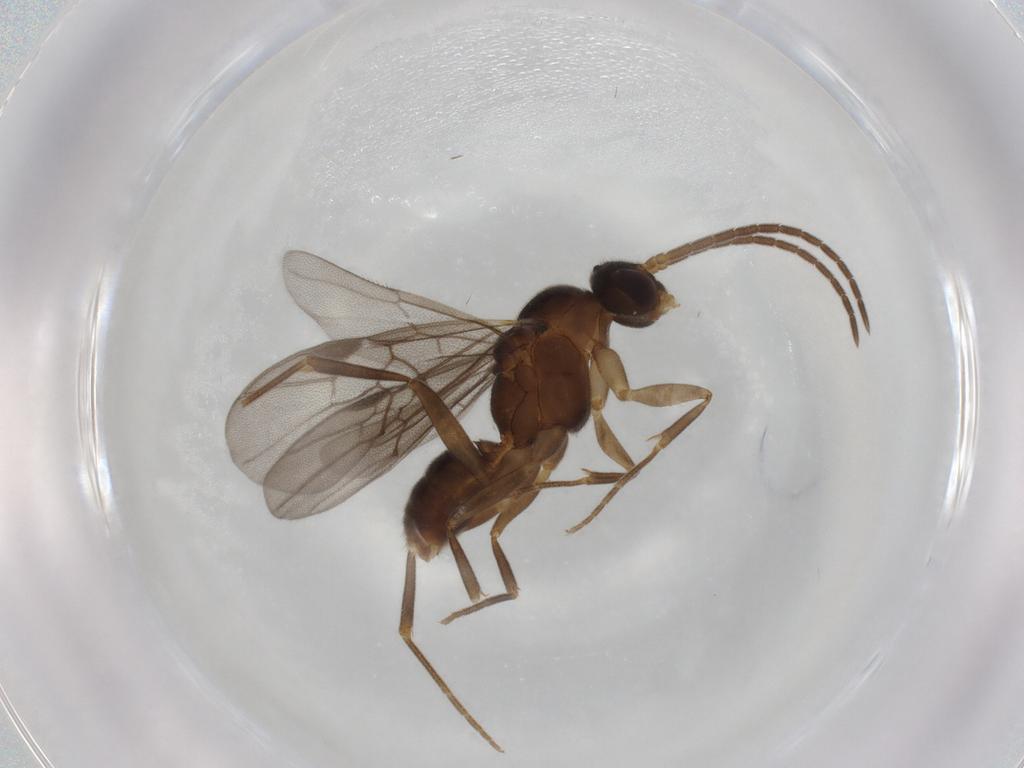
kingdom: Animalia
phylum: Arthropoda
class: Insecta
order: Hymenoptera
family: Formicidae
